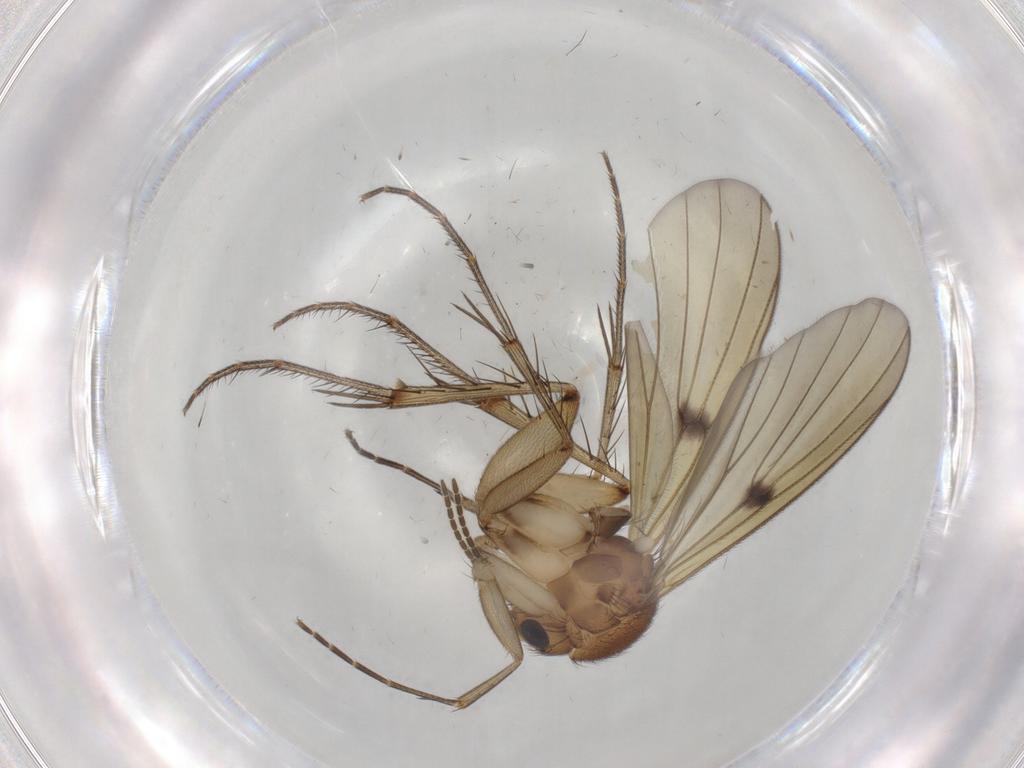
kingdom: Animalia
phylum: Arthropoda
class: Insecta
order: Diptera
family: Mycetophilidae
